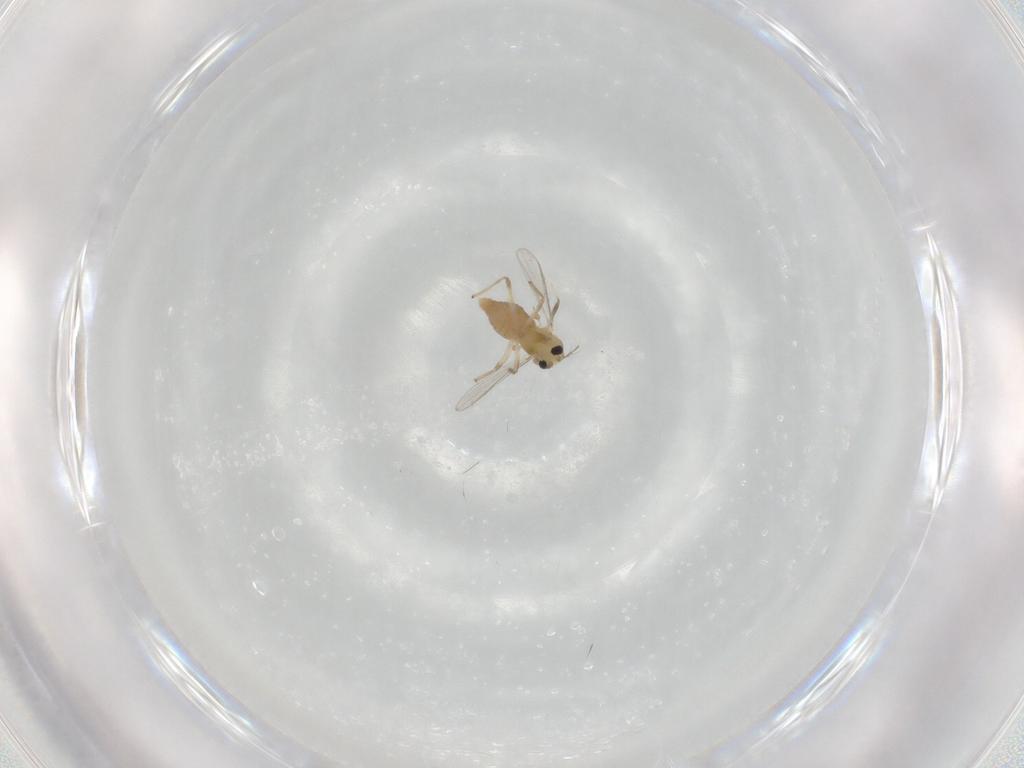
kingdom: Animalia
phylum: Arthropoda
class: Insecta
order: Diptera
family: Chironomidae
